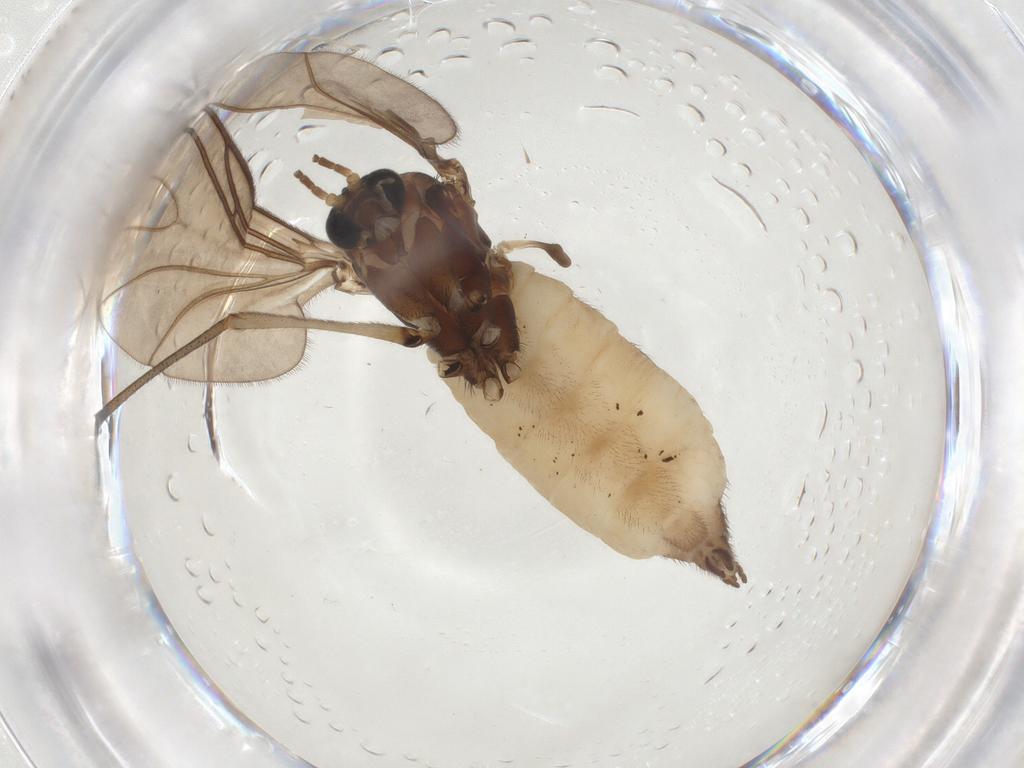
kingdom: Animalia
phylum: Arthropoda
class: Insecta
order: Diptera
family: Sciaridae
